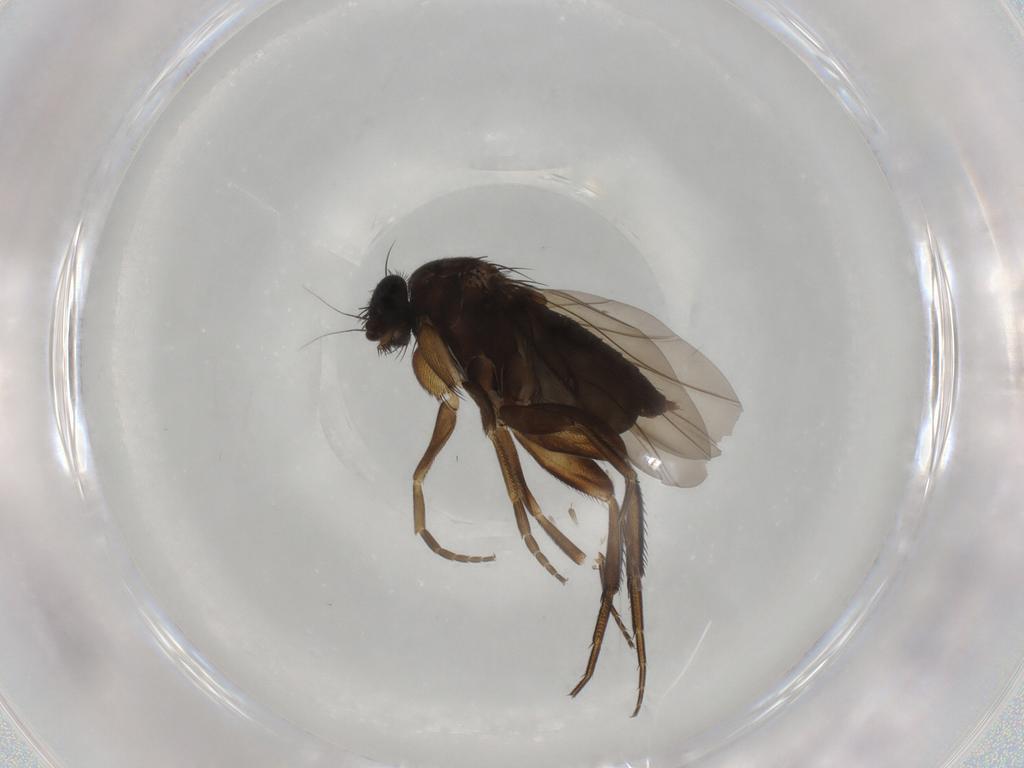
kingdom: Animalia
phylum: Arthropoda
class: Insecta
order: Diptera
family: Phoridae
